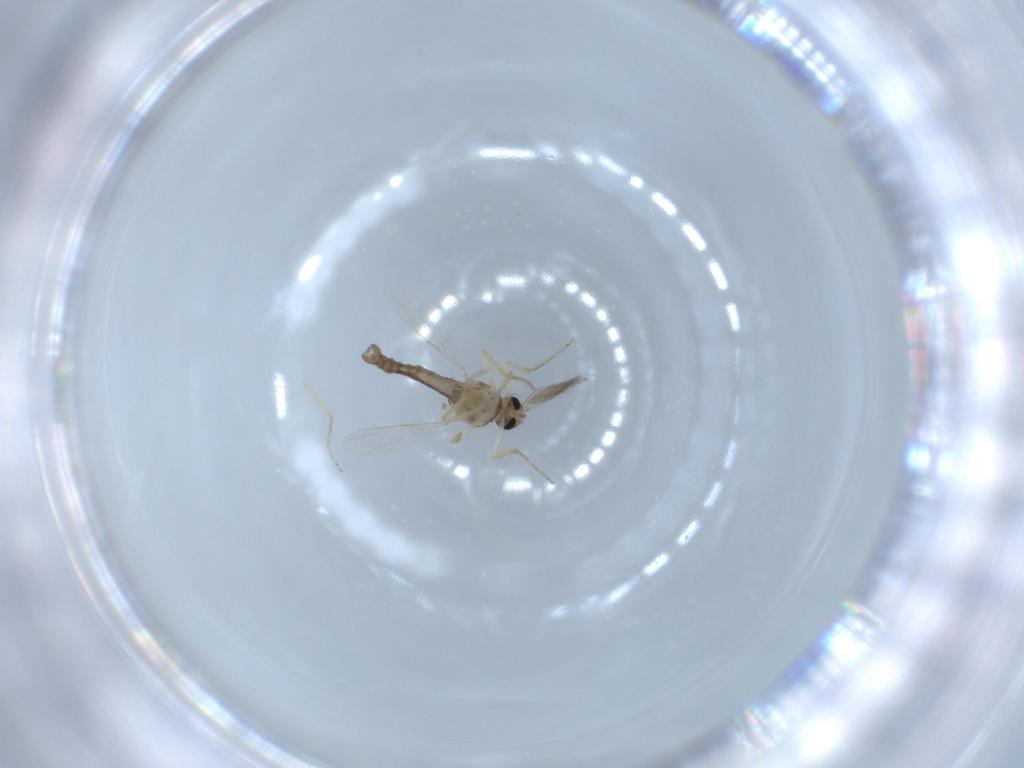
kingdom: Animalia
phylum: Arthropoda
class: Insecta
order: Diptera
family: Ceratopogonidae
